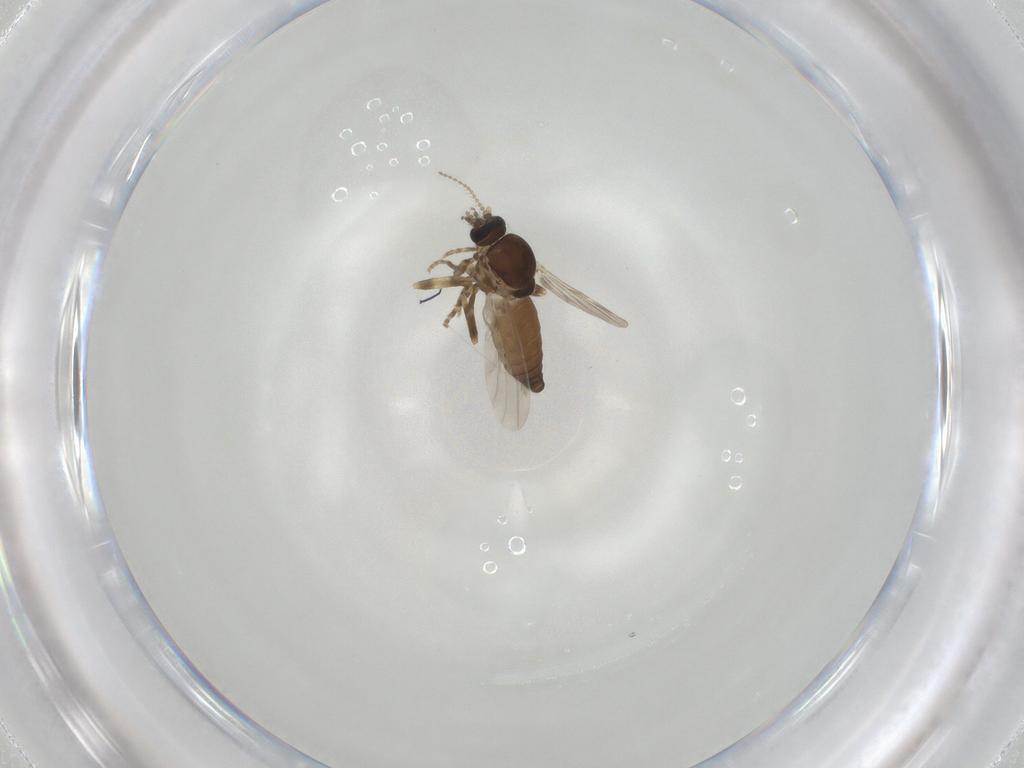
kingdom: Animalia
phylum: Arthropoda
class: Insecta
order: Diptera
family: Ceratopogonidae
